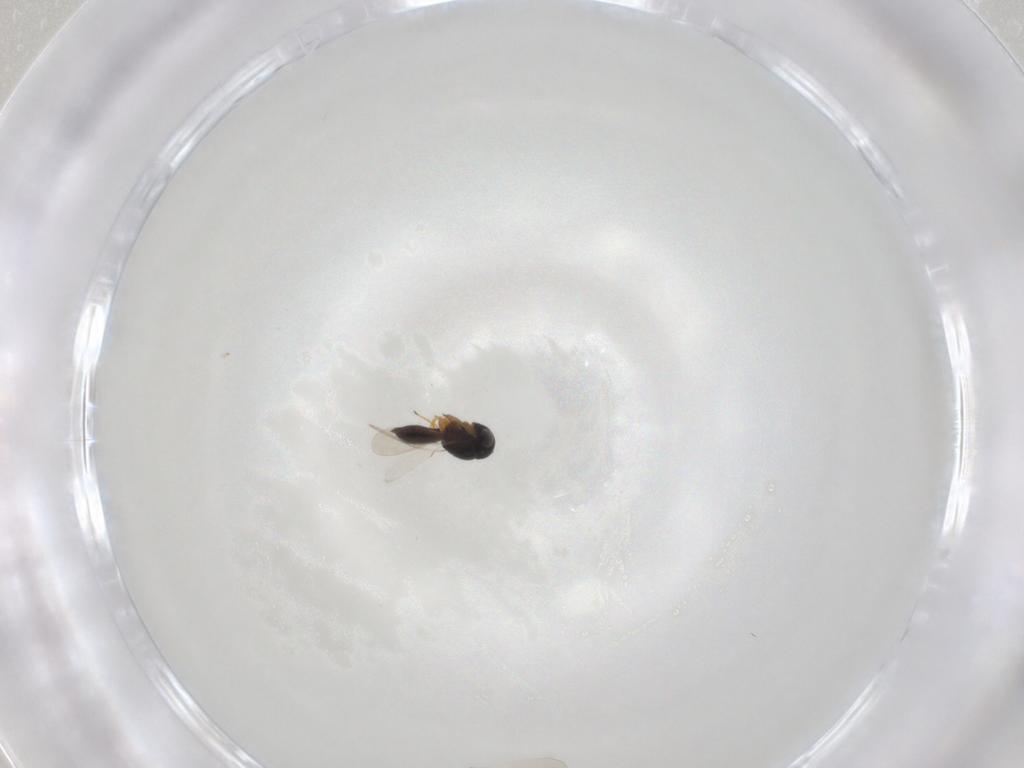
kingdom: Animalia
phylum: Arthropoda
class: Insecta
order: Hymenoptera
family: Scelionidae
